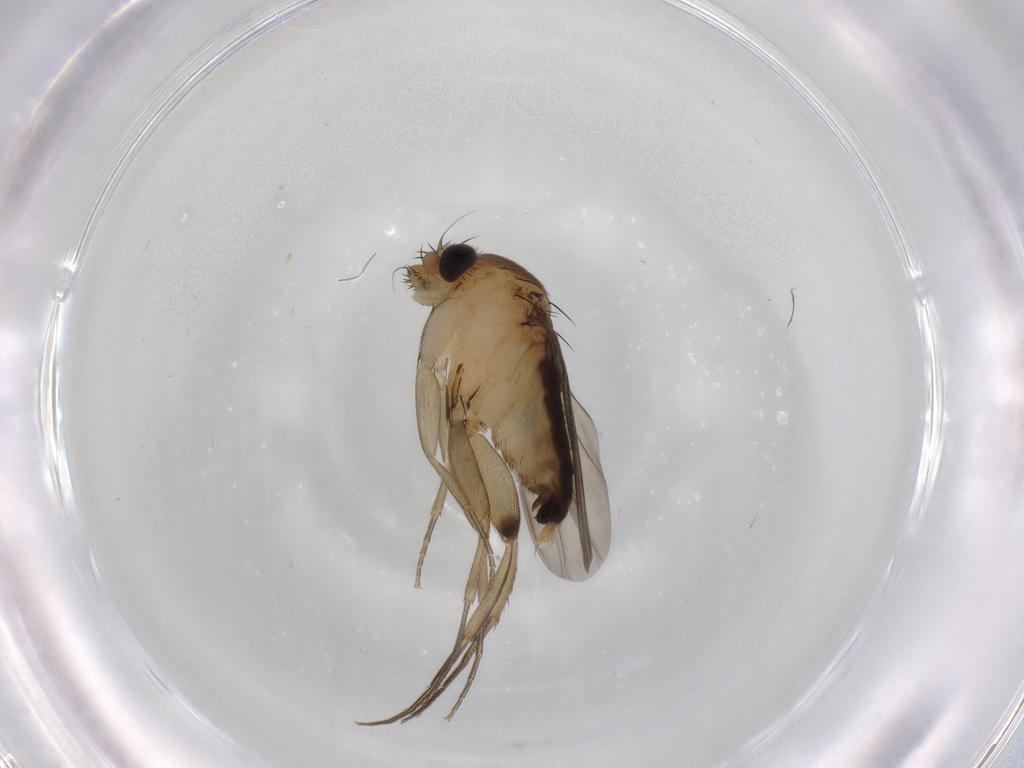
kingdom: Animalia
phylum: Arthropoda
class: Insecta
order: Diptera
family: Phoridae
